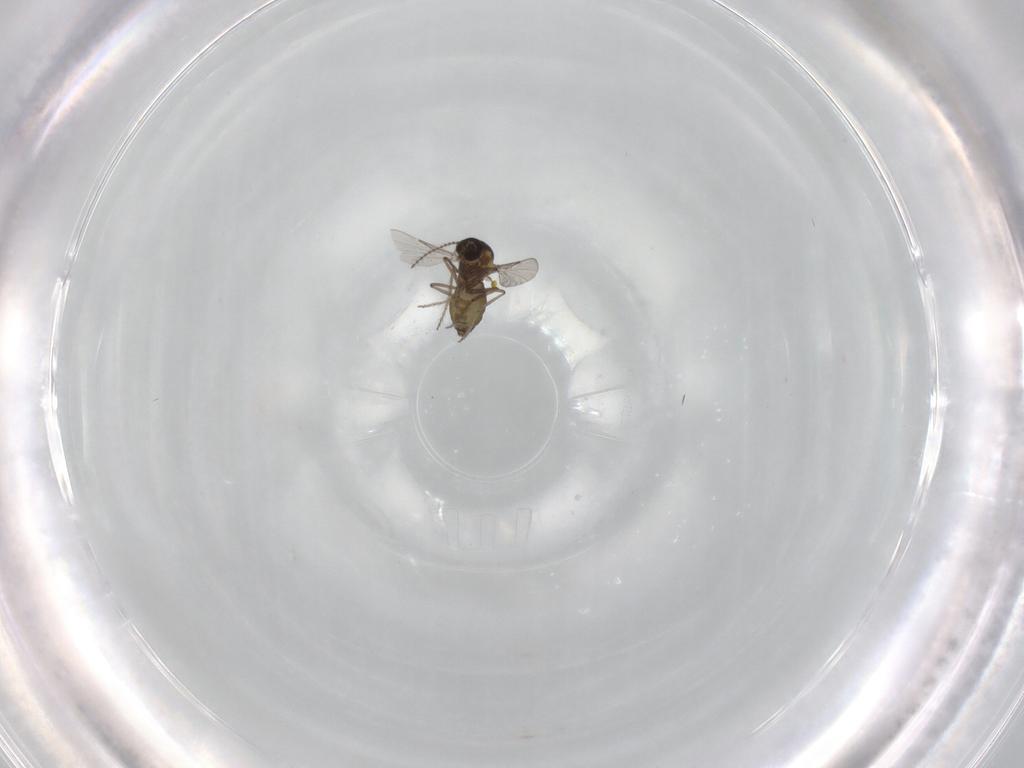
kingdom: Animalia
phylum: Arthropoda
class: Insecta
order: Diptera
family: Ceratopogonidae
